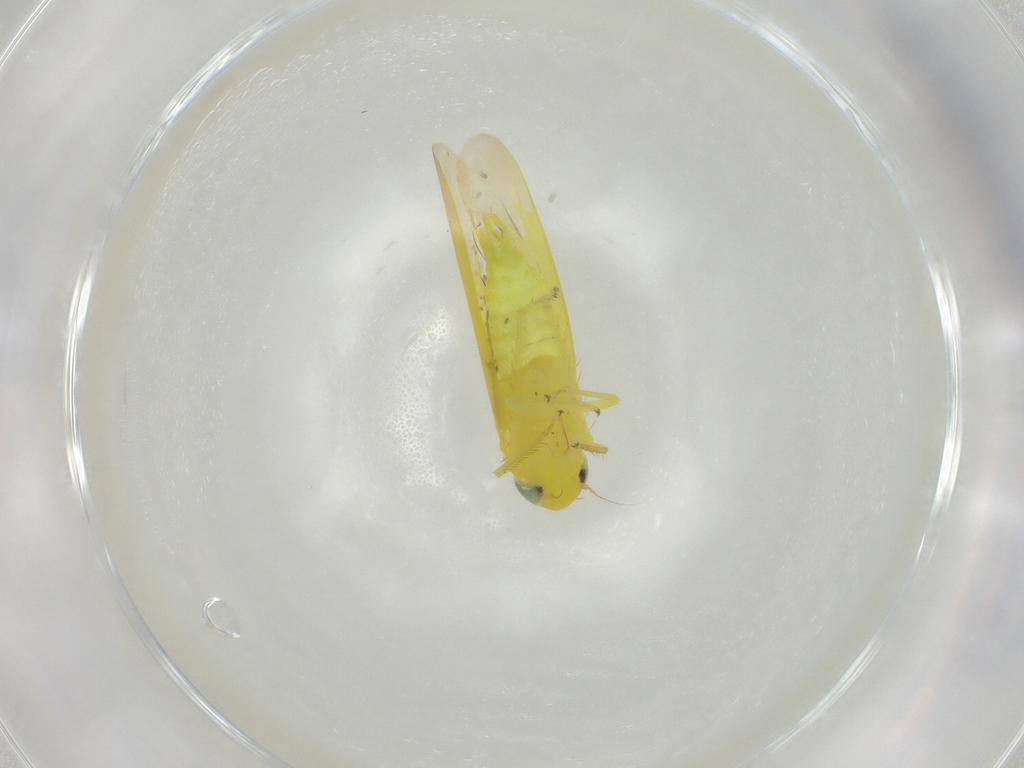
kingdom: Animalia
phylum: Arthropoda
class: Insecta
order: Hemiptera
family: Cicadellidae
